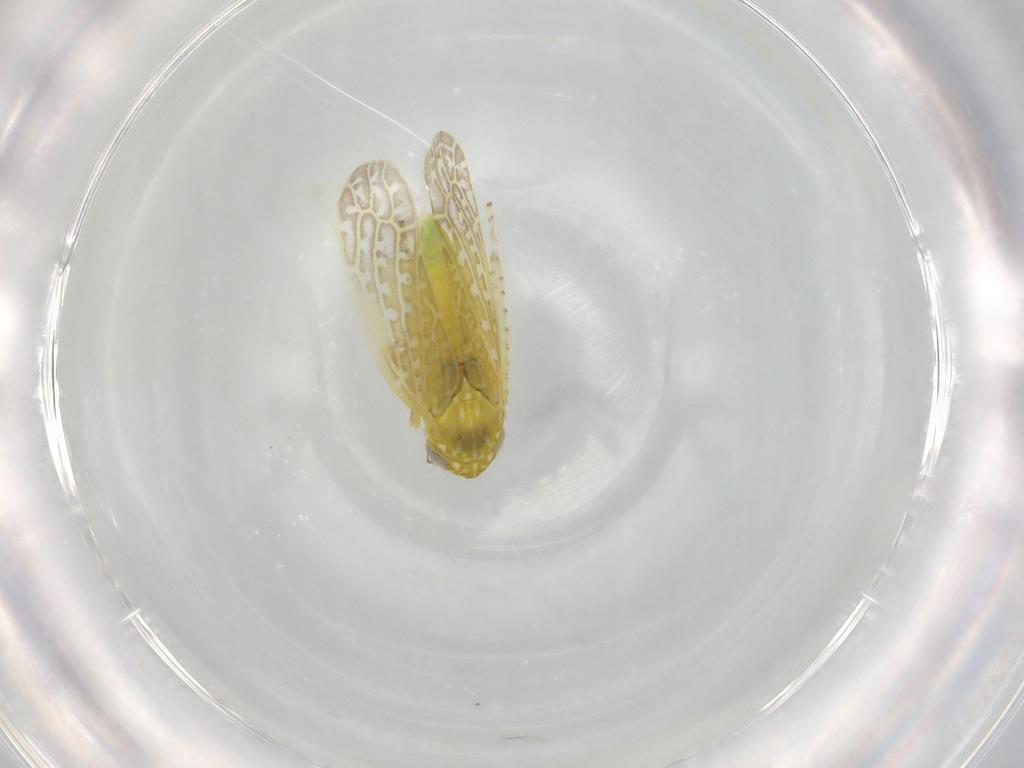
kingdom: Animalia
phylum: Arthropoda
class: Insecta
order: Hemiptera
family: Cicadellidae
